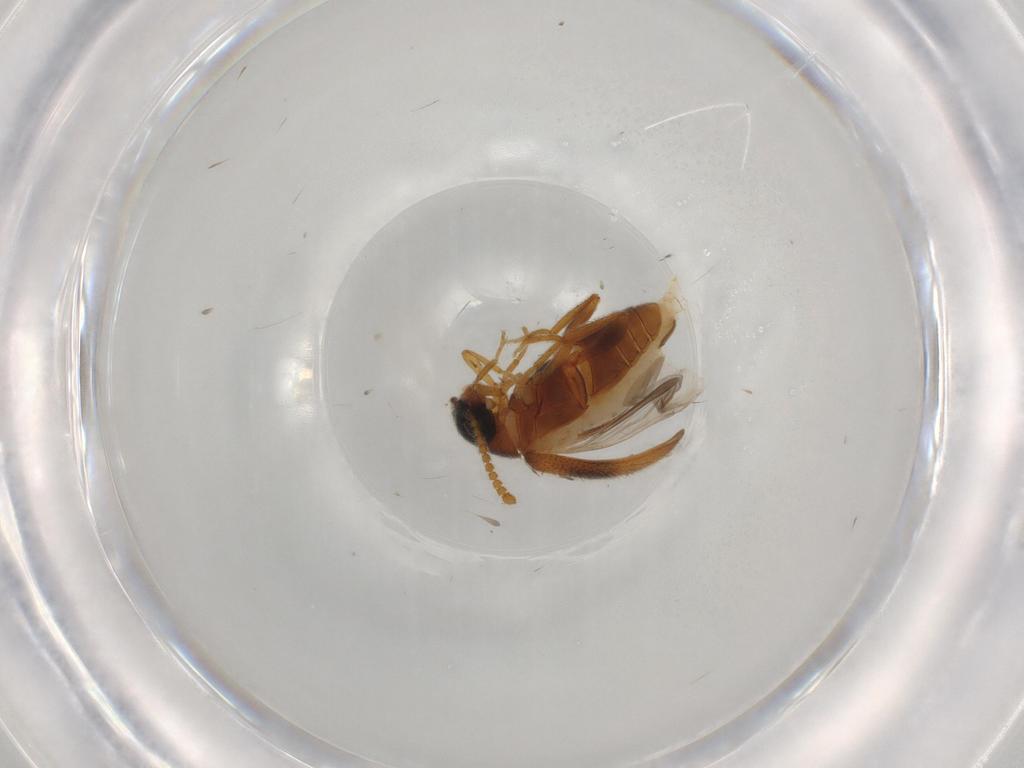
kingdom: Animalia
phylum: Arthropoda
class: Insecta
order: Coleoptera
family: Aderidae
